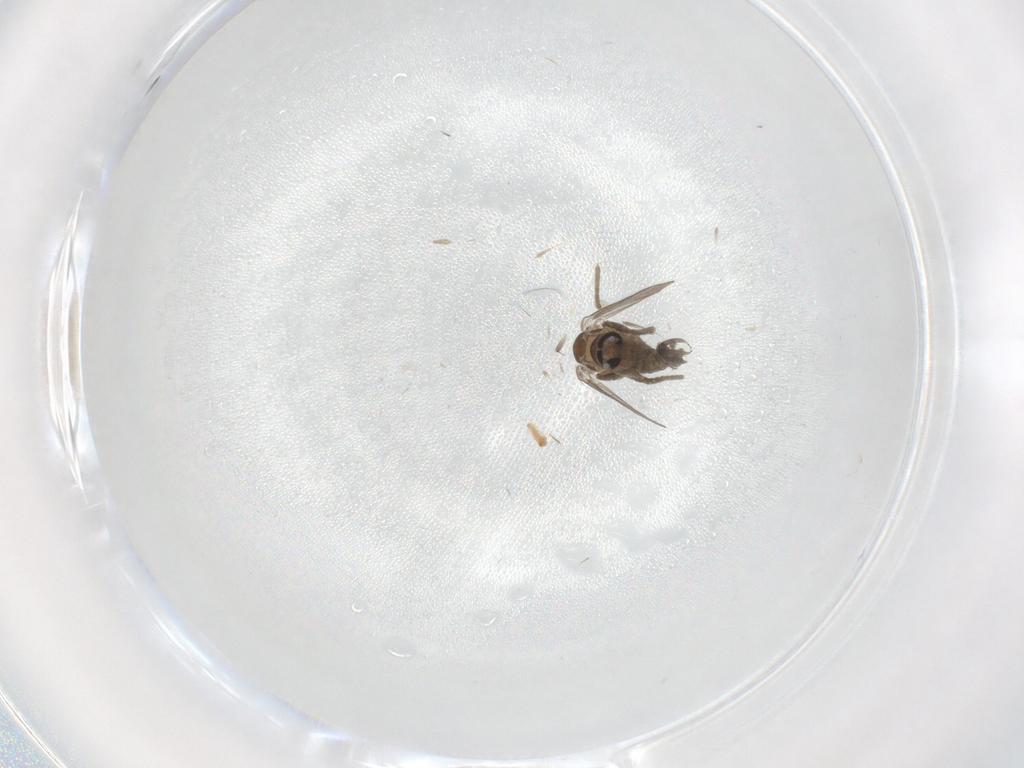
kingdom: Animalia
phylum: Arthropoda
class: Insecta
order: Diptera
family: Psychodidae
